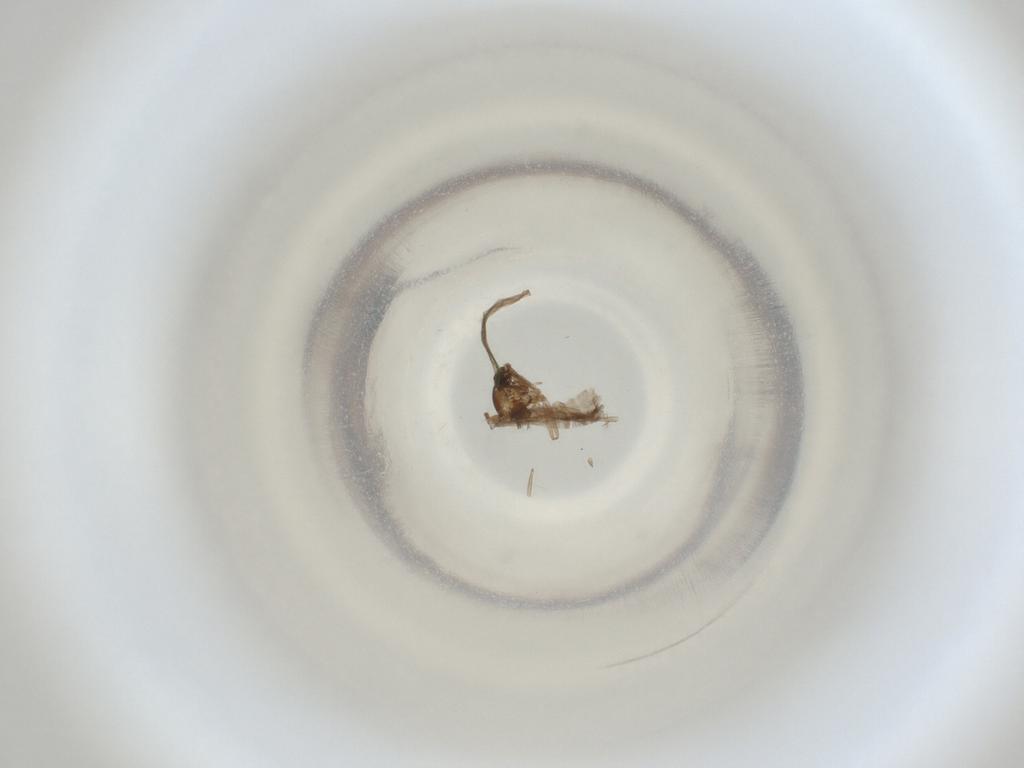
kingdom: Animalia
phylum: Arthropoda
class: Insecta
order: Diptera
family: Cecidomyiidae
